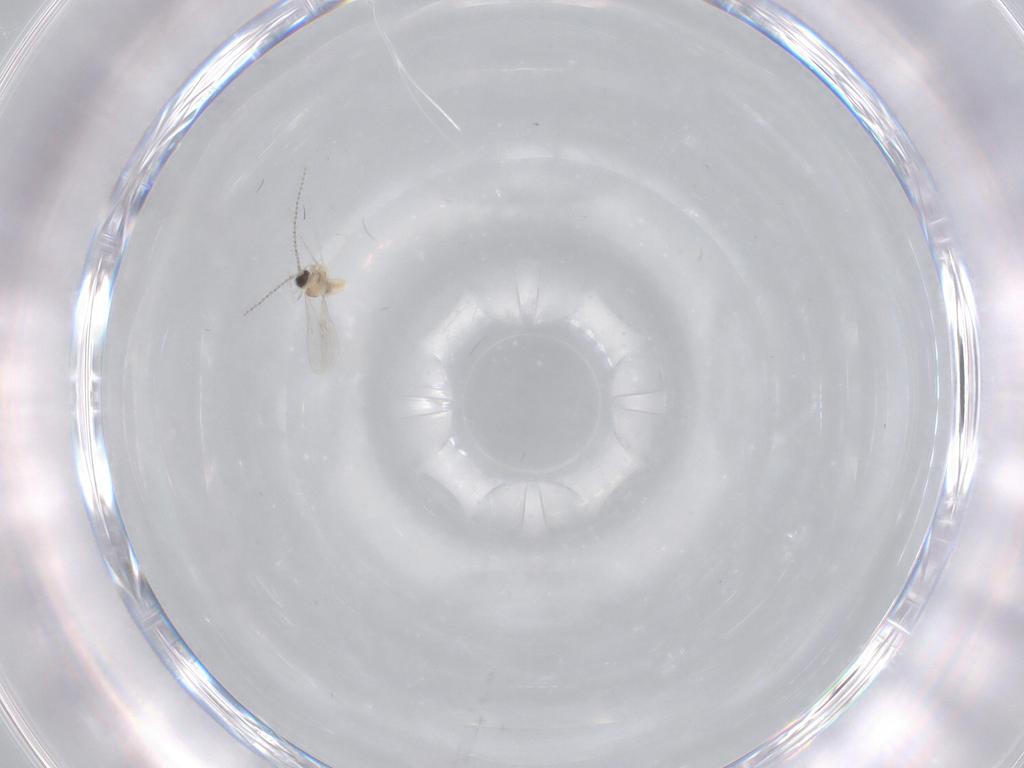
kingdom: Animalia
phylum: Arthropoda
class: Insecta
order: Diptera
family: Cecidomyiidae
